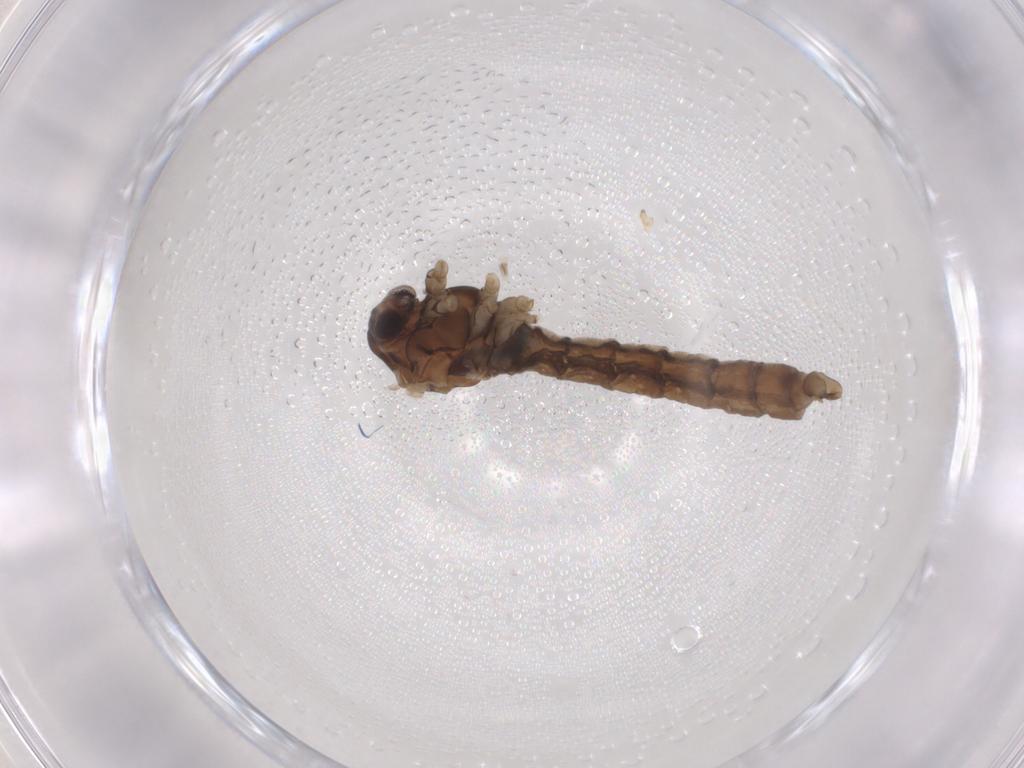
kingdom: Animalia
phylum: Arthropoda
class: Insecta
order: Diptera
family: Cecidomyiidae
